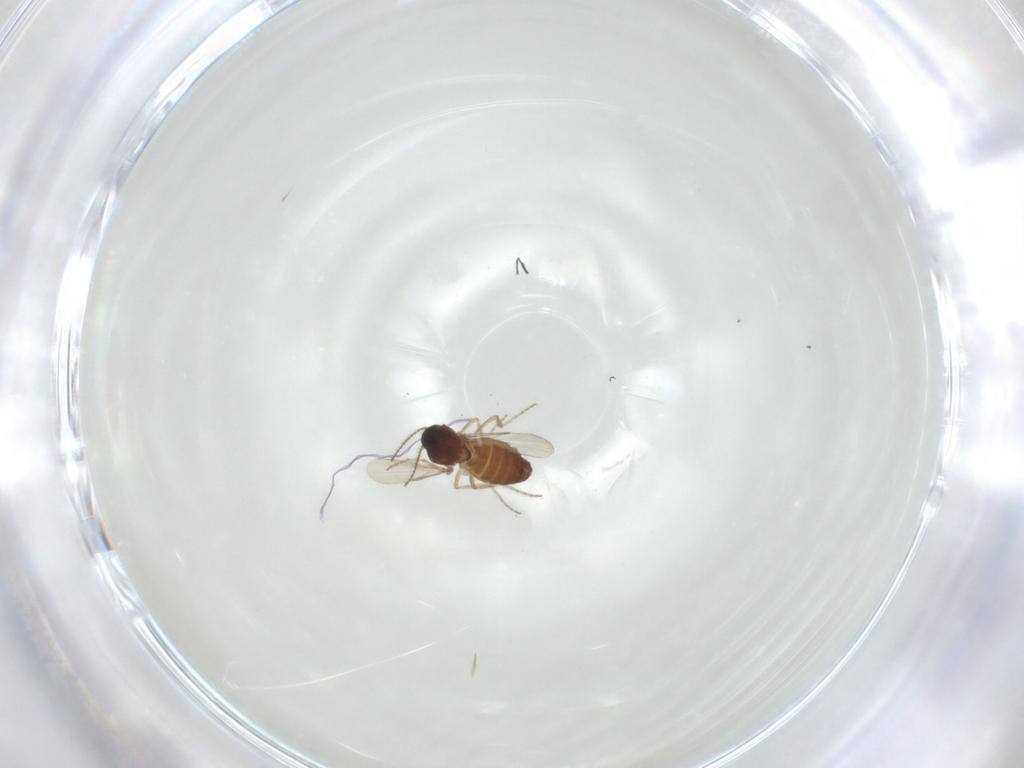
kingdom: Animalia
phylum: Arthropoda
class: Insecta
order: Diptera
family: Ceratopogonidae
